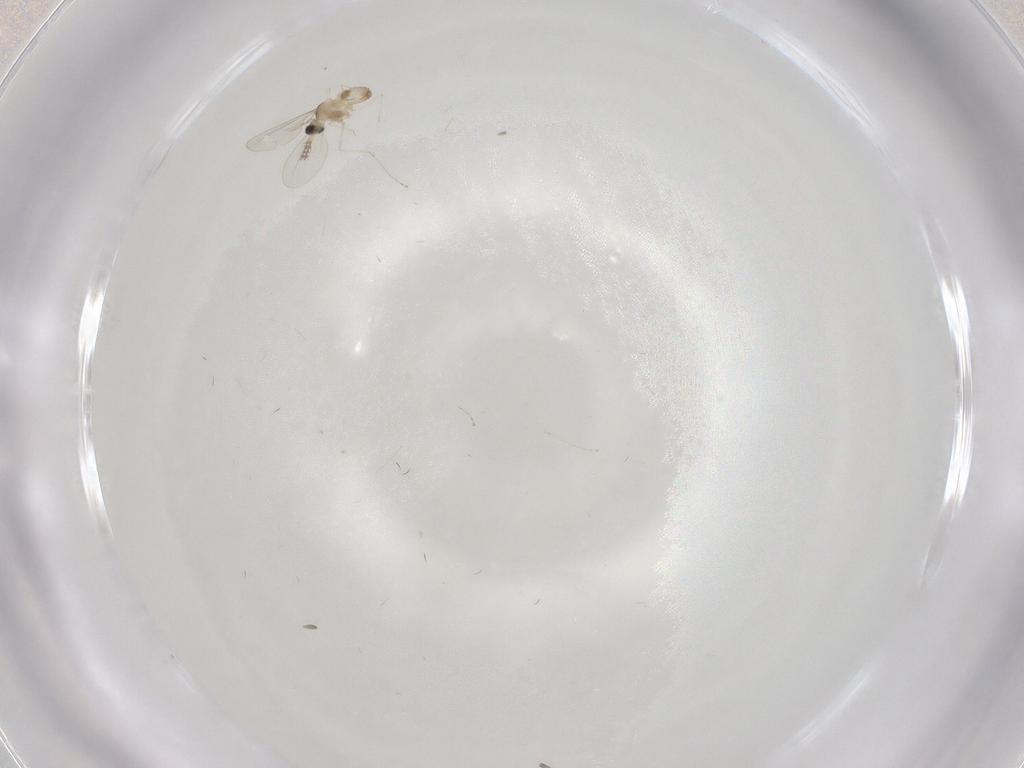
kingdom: Animalia
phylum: Arthropoda
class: Insecta
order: Diptera
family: Cecidomyiidae
